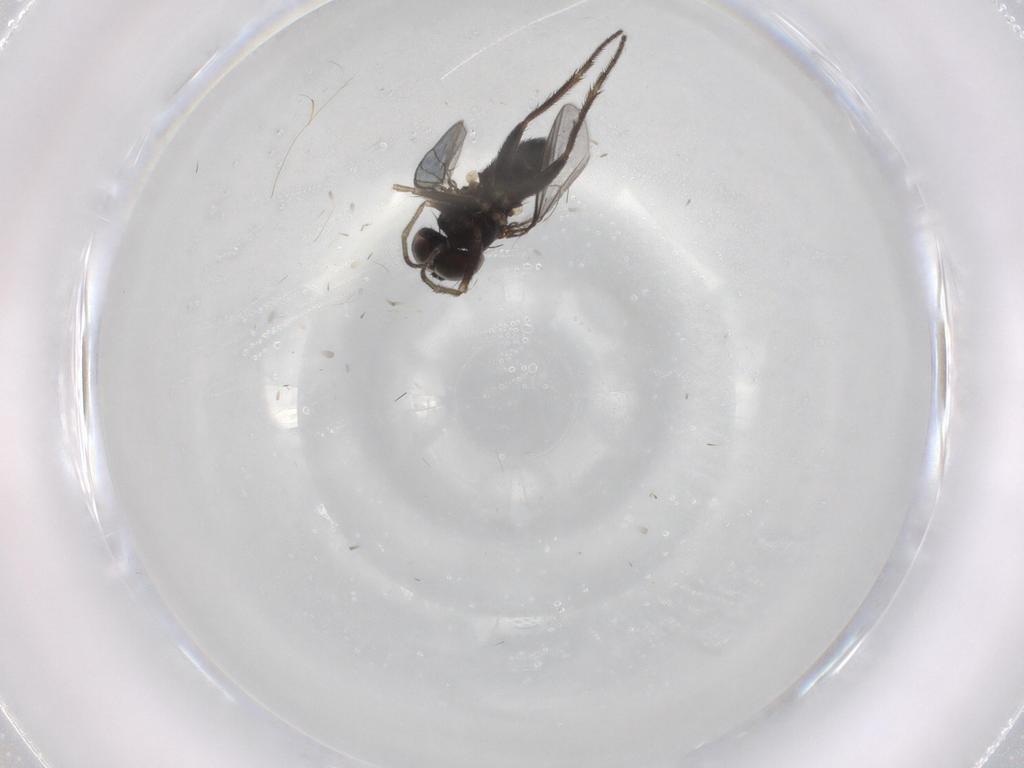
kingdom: Animalia
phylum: Arthropoda
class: Insecta
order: Diptera
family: Dolichopodidae
